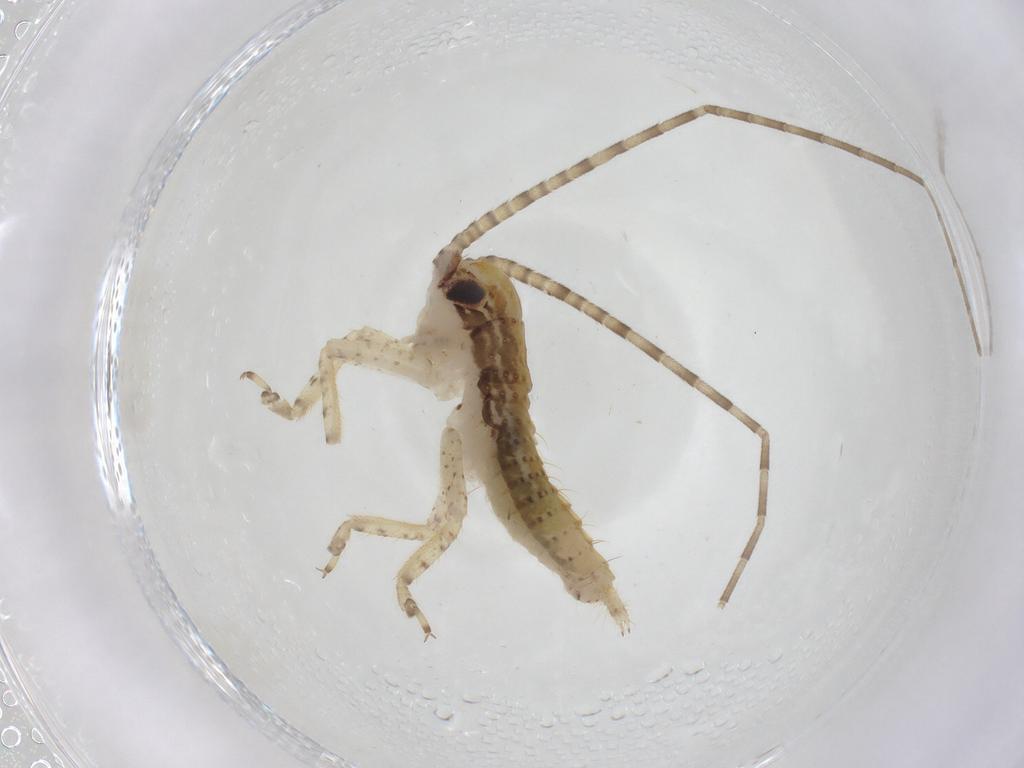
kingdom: Animalia
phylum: Arthropoda
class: Insecta
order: Orthoptera
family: Gryllidae
